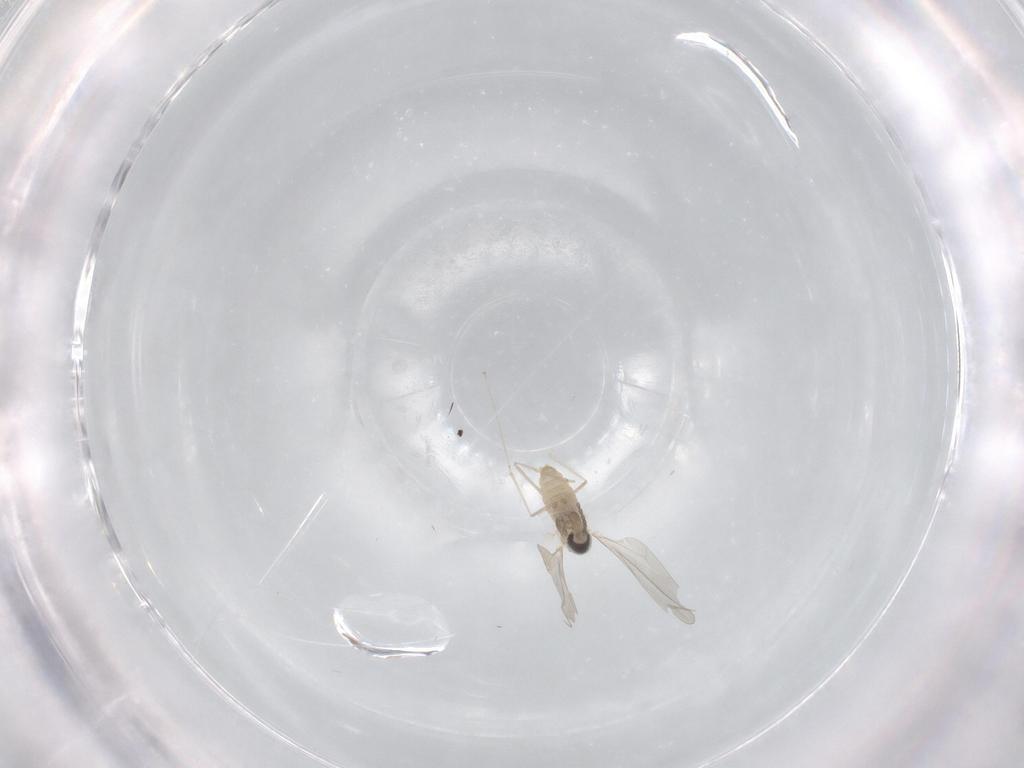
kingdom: Animalia
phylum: Arthropoda
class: Insecta
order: Diptera
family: Cecidomyiidae
